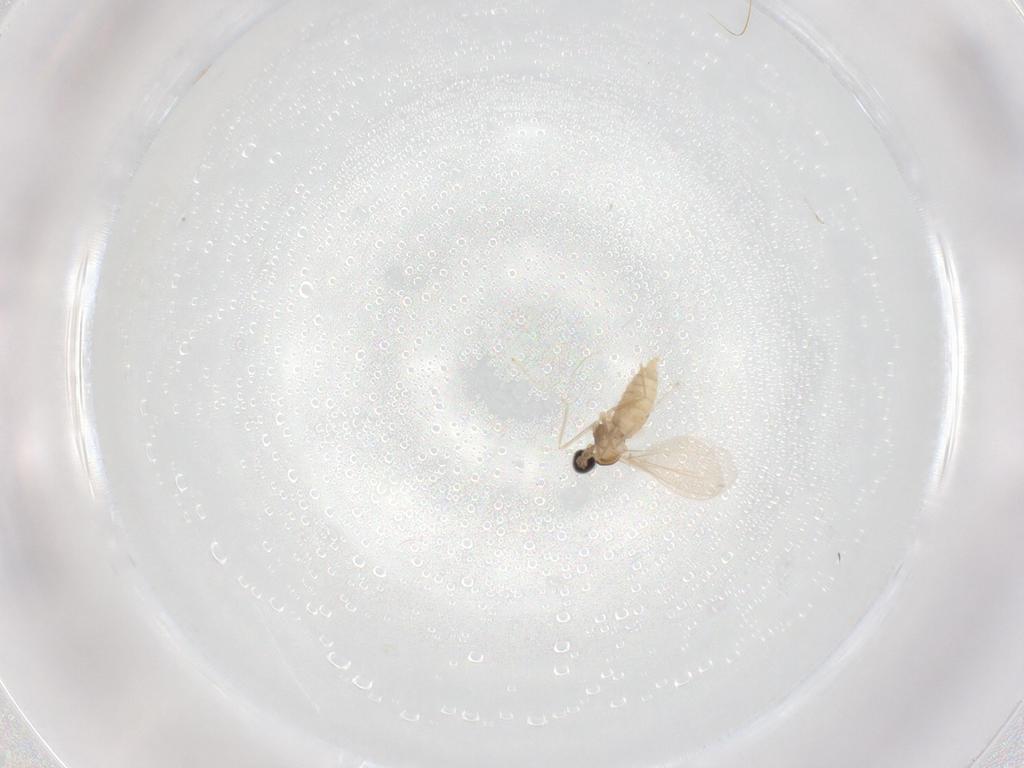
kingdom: Animalia
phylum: Arthropoda
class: Insecta
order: Diptera
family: Cecidomyiidae
